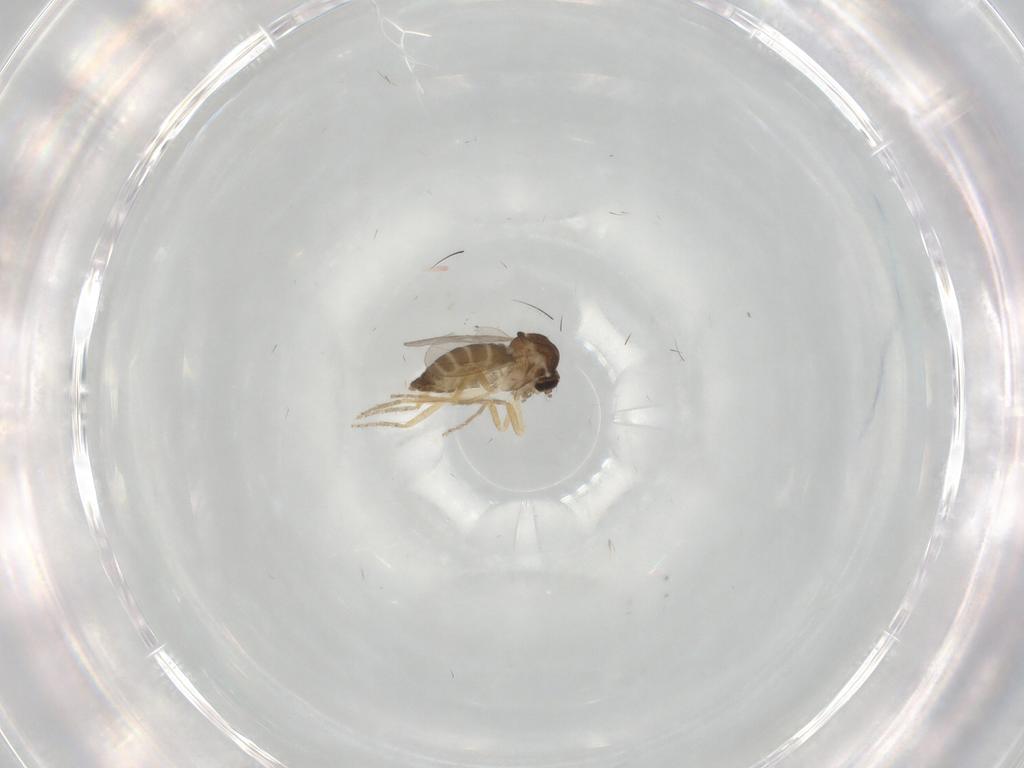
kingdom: Animalia
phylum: Arthropoda
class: Insecta
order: Diptera
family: Ceratopogonidae
